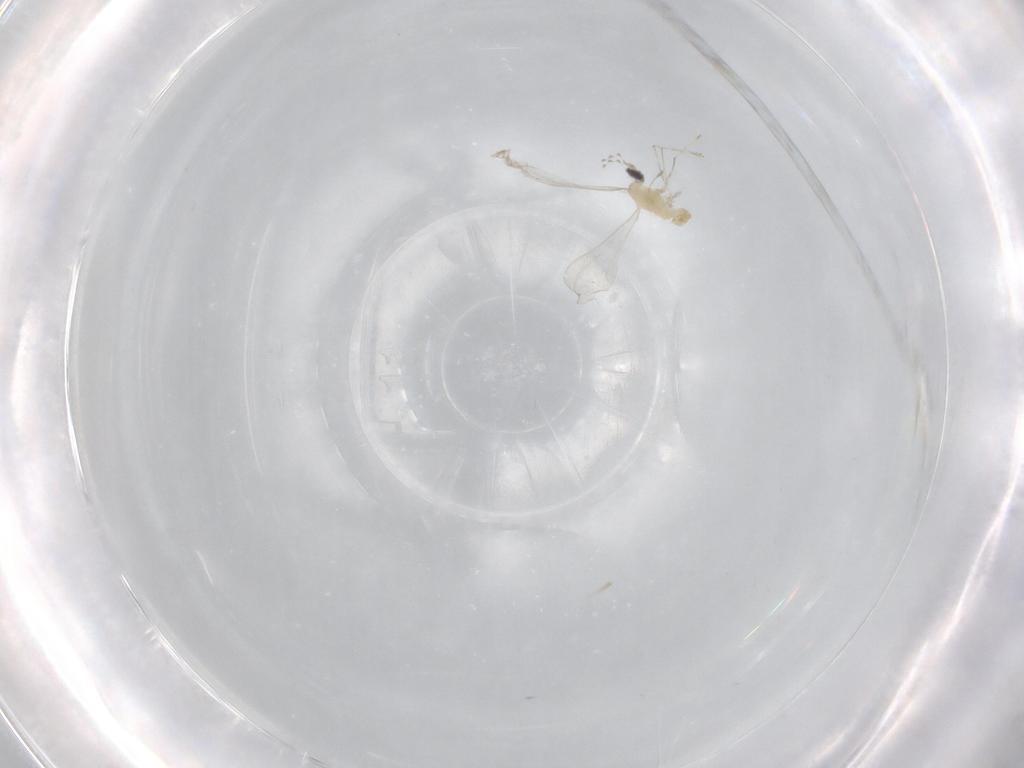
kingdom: Animalia
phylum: Arthropoda
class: Insecta
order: Diptera
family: Cecidomyiidae
